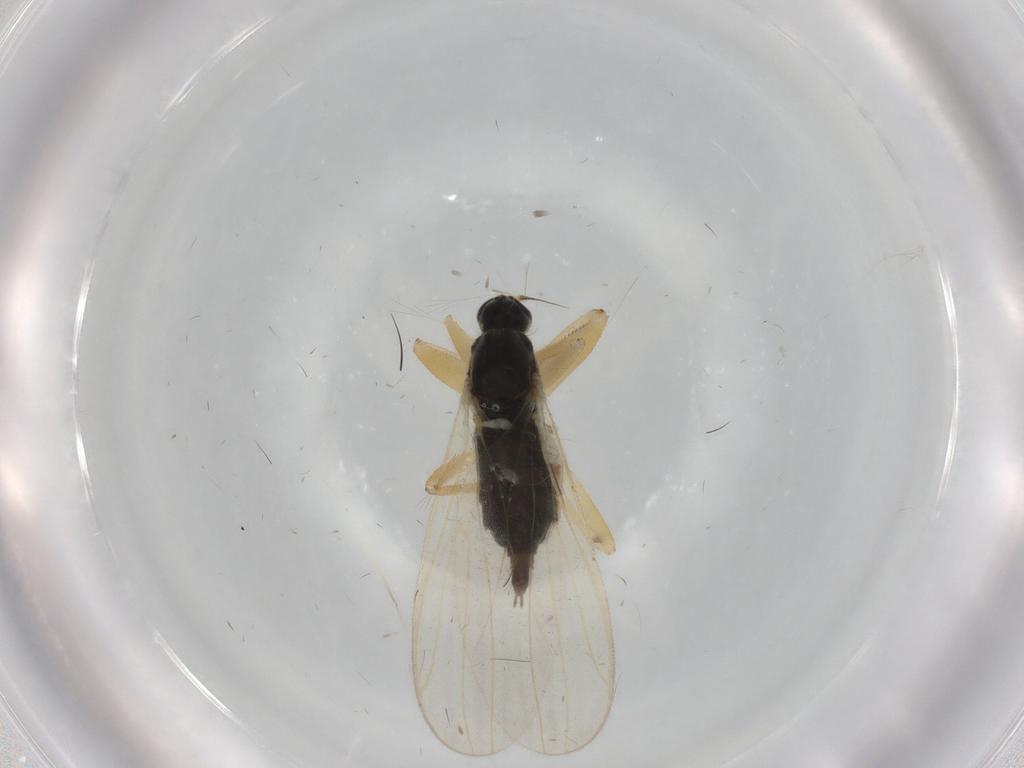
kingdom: Animalia
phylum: Arthropoda
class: Insecta
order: Diptera
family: Hybotidae
